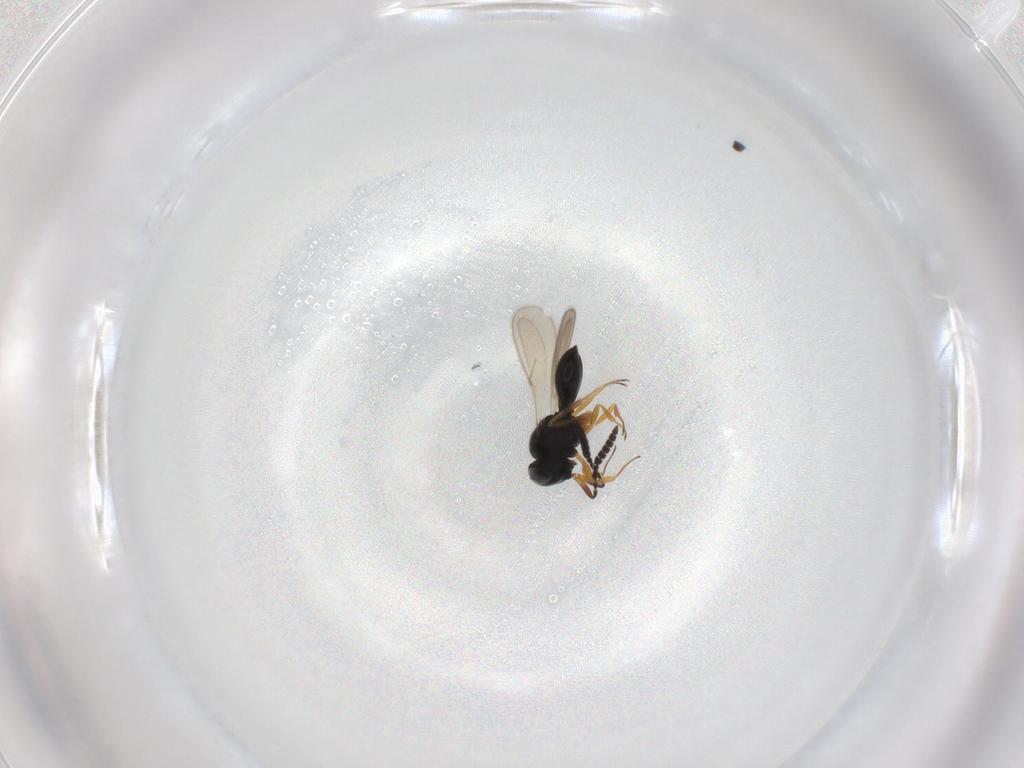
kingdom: Animalia
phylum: Arthropoda
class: Insecta
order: Hymenoptera
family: Scelionidae
